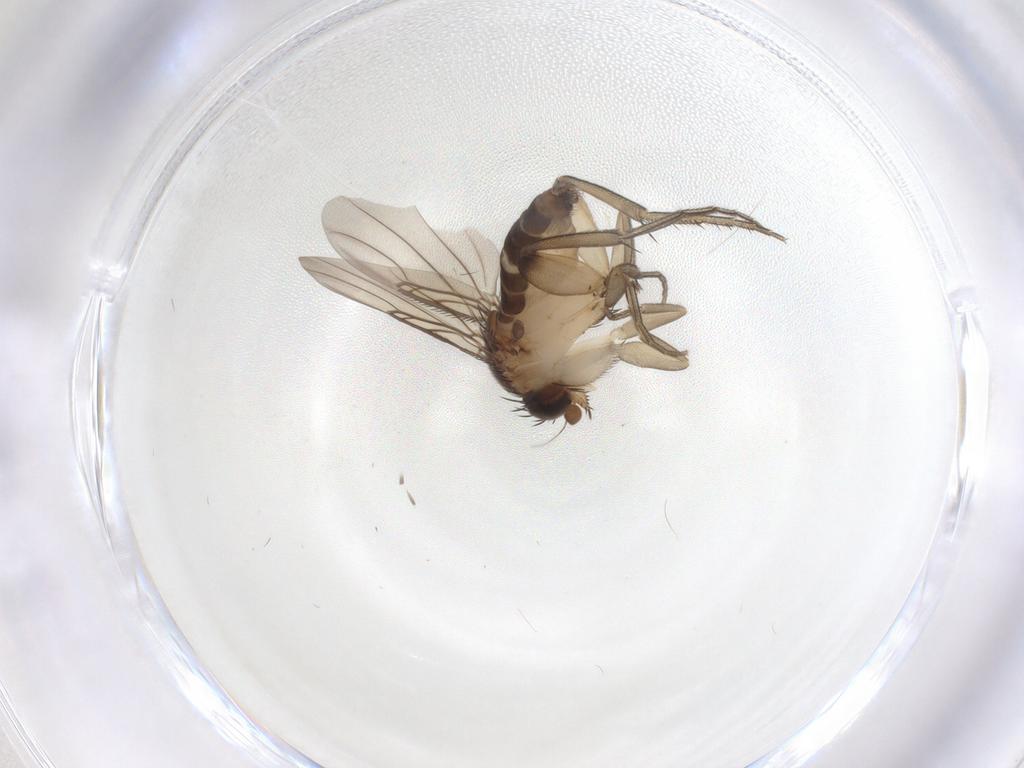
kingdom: Animalia
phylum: Arthropoda
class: Insecta
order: Diptera
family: Phoridae
